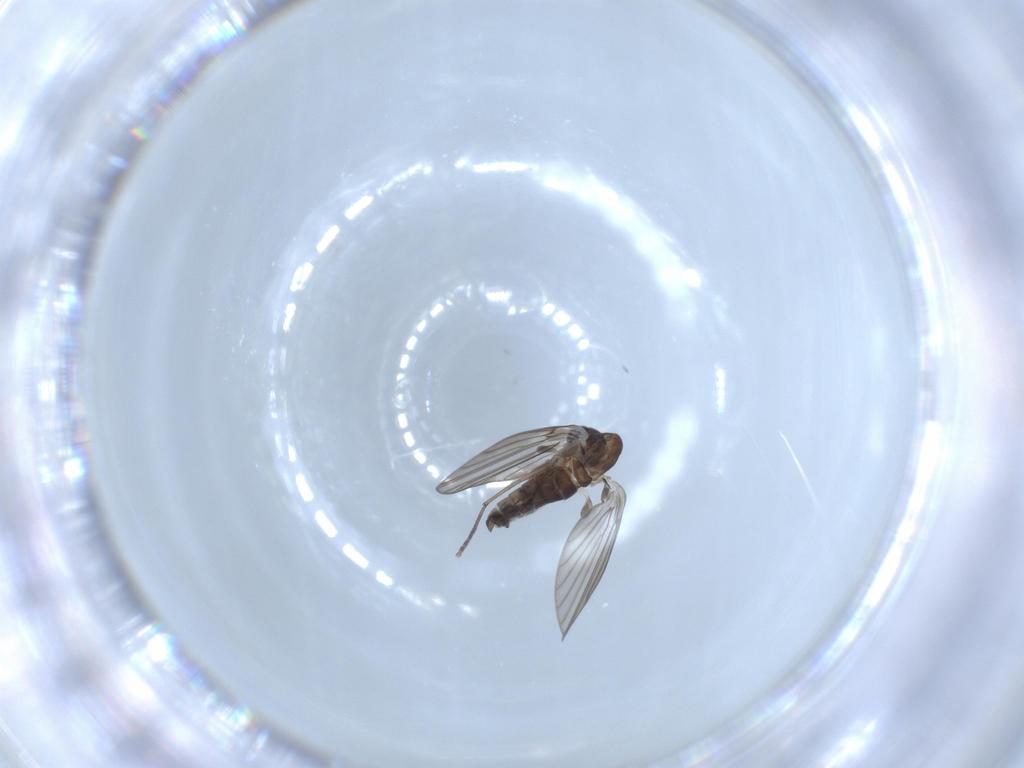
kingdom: Animalia
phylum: Arthropoda
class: Insecta
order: Diptera
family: Psychodidae
